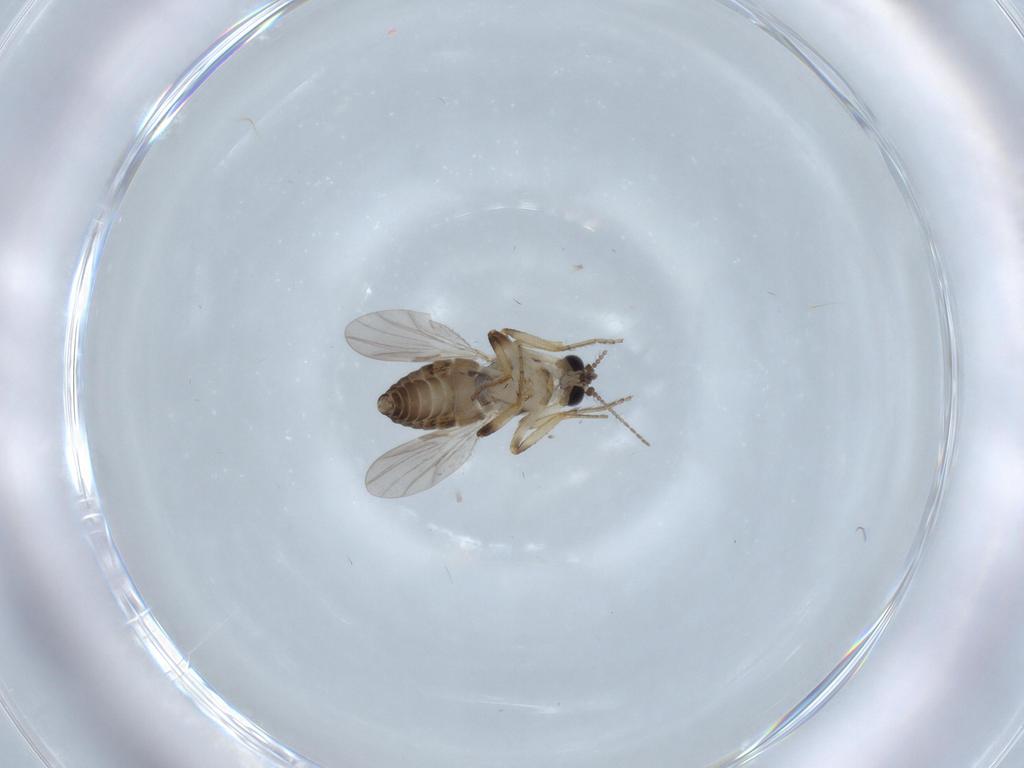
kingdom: Animalia
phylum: Arthropoda
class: Insecta
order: Diptera
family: Ceratopogonidae
